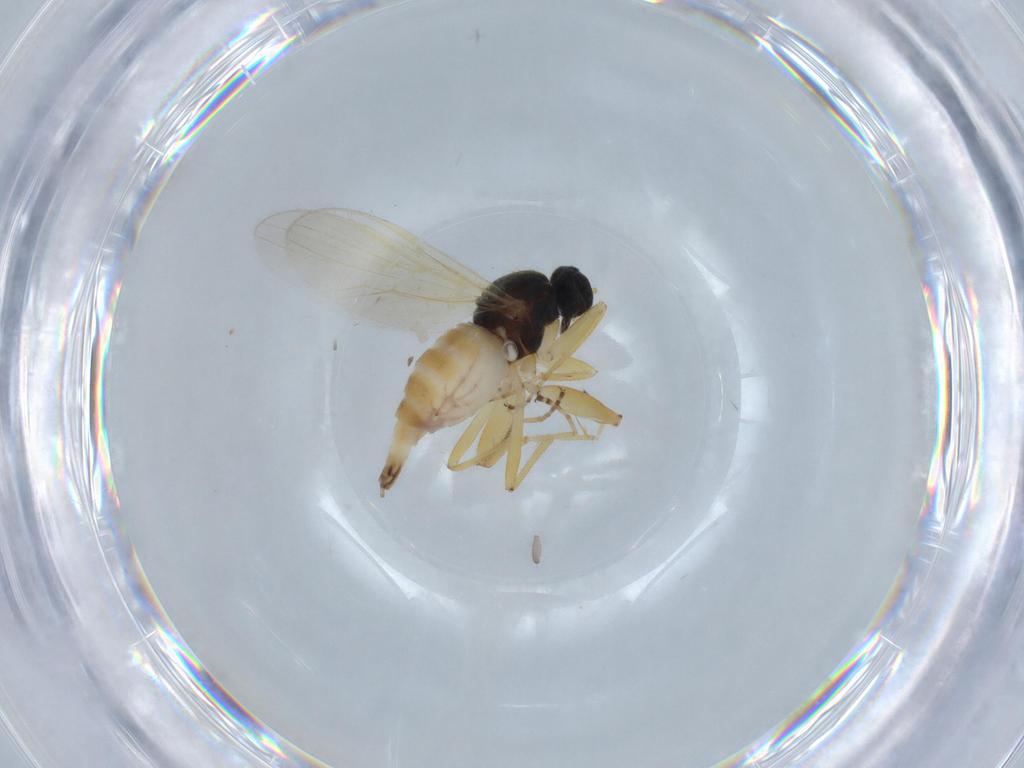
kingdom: Animalia
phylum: Arthropoda
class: Insecta
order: Diptera
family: Hybotidae
